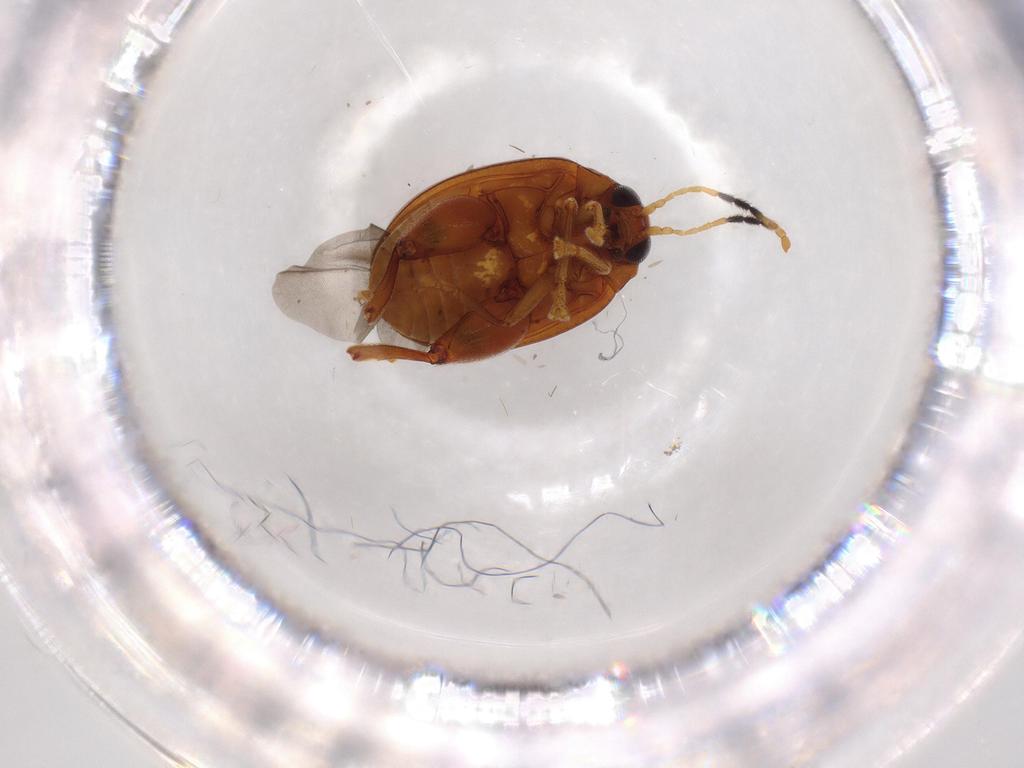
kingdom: Animalia
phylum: Arthropoda
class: Insecta
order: Coleoptera
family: Chrysomelidae
